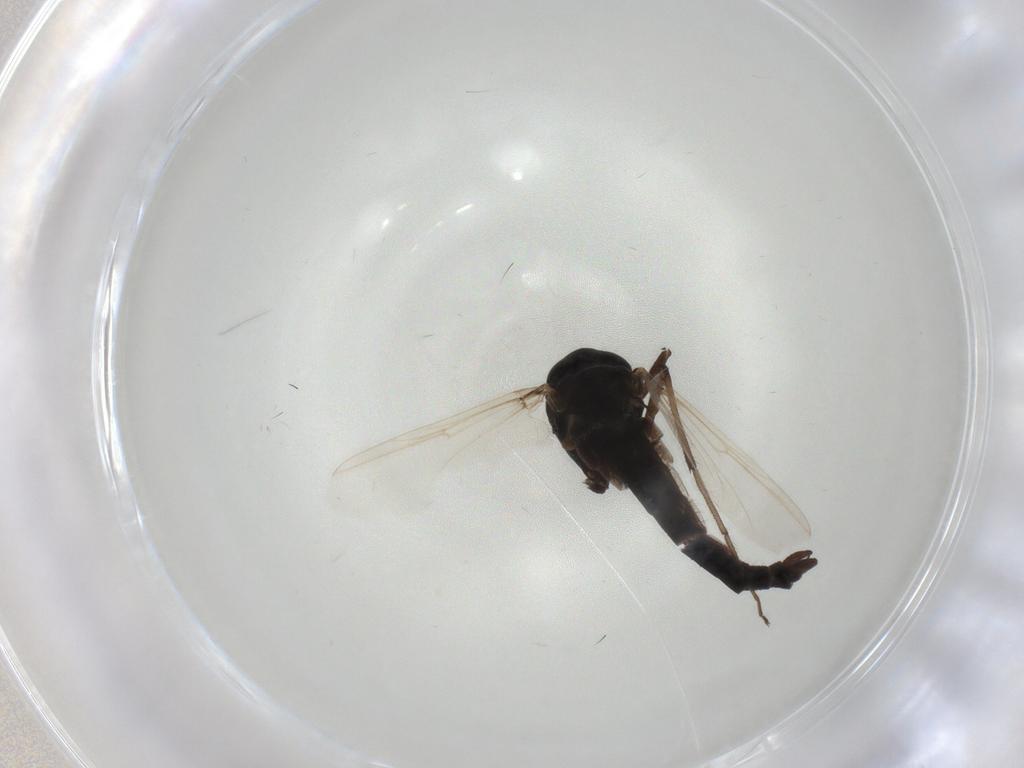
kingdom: Animalia
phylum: Arthropoda
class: Insecta
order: Diptera
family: Chironomidae
